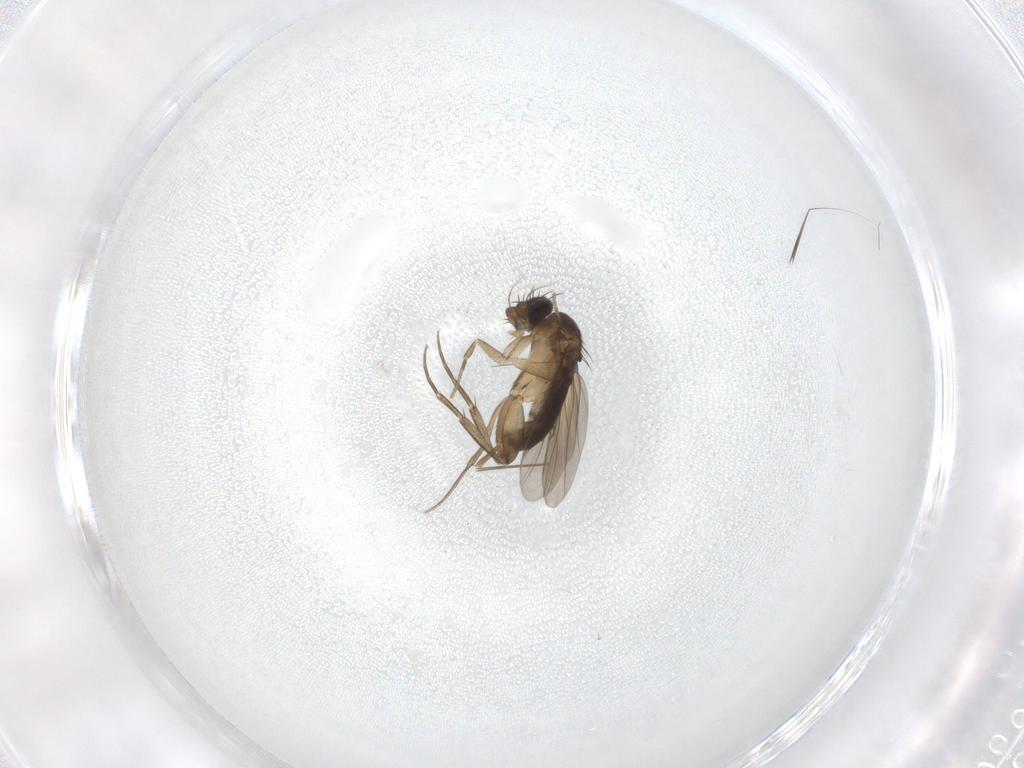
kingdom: Animalia
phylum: Arthropoda
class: Insecta
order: Diptera
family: Phoridae
